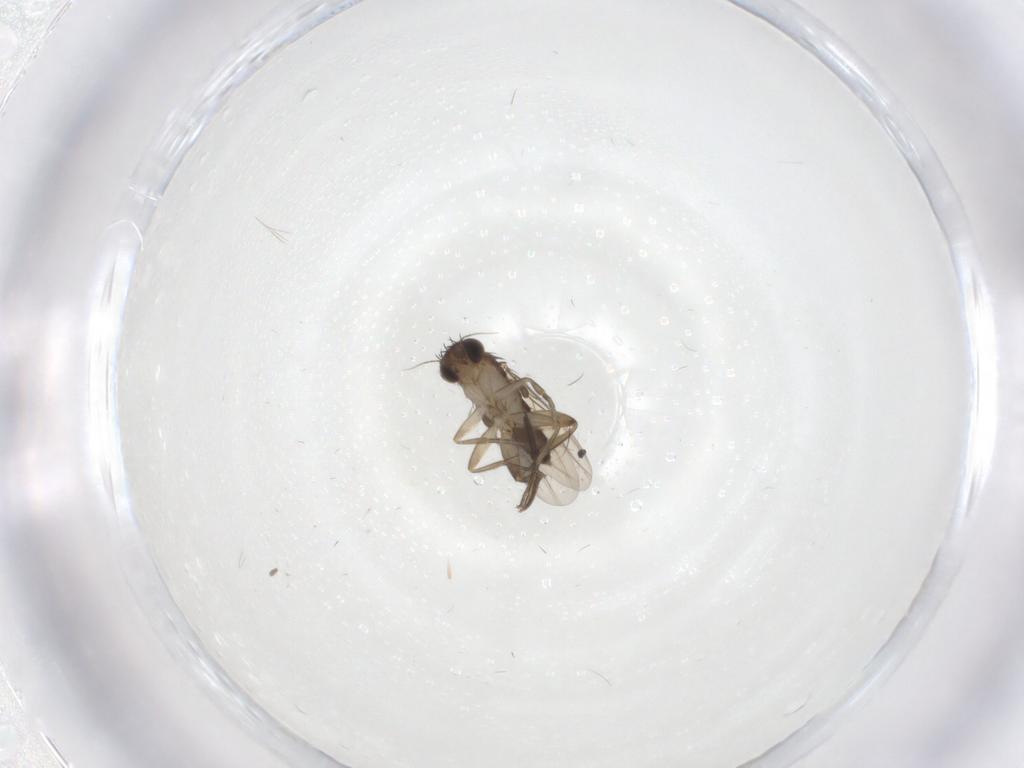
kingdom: Animalia
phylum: Arthropoda
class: Insecta
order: Diptera
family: Phoridae
